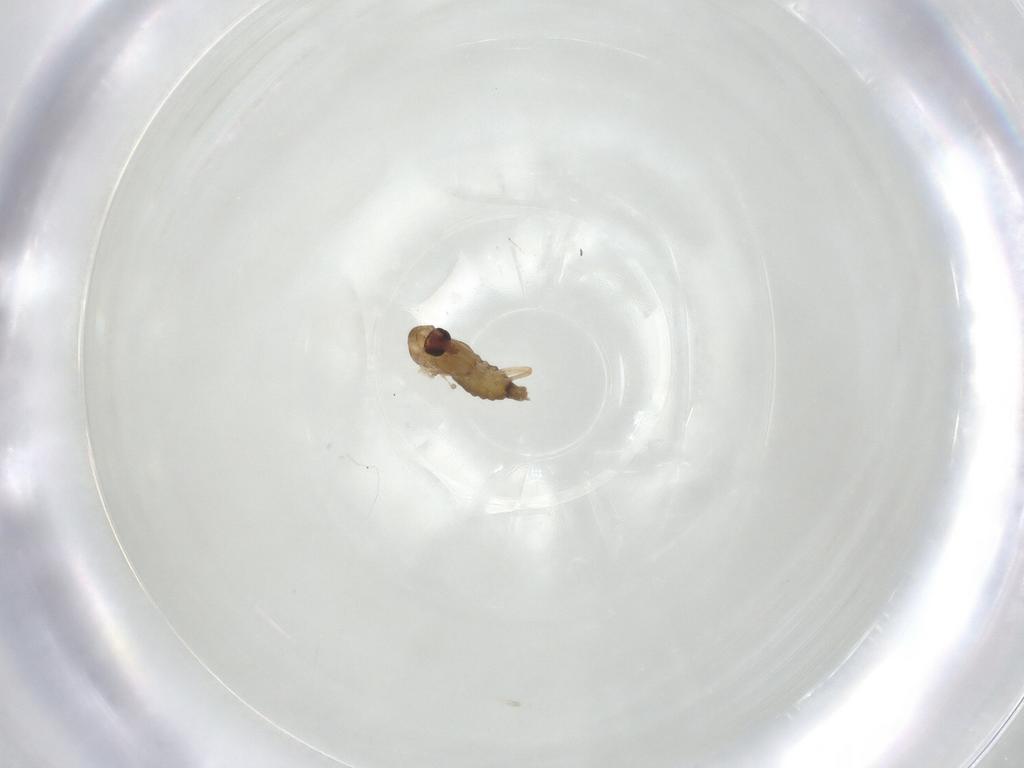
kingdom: Animalia
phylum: Arthropoda
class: Insecta
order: Diptera
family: Chironomidae
